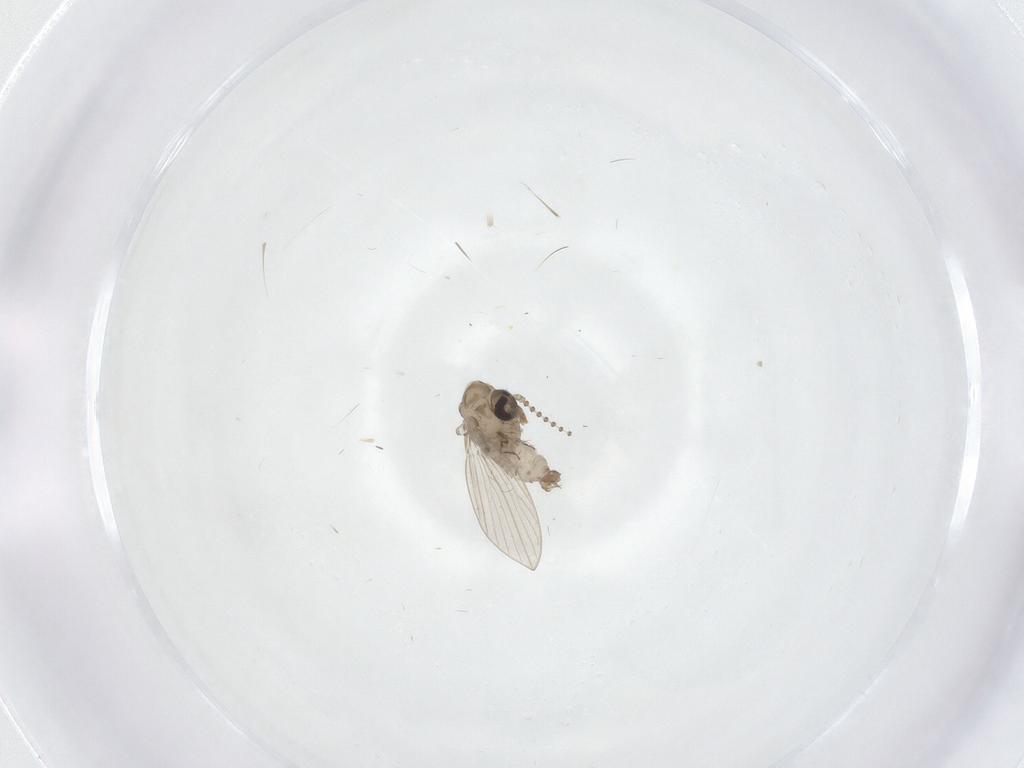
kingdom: Animalia
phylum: Arthropoda
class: Insecta
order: Diptera
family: Psychodidae
